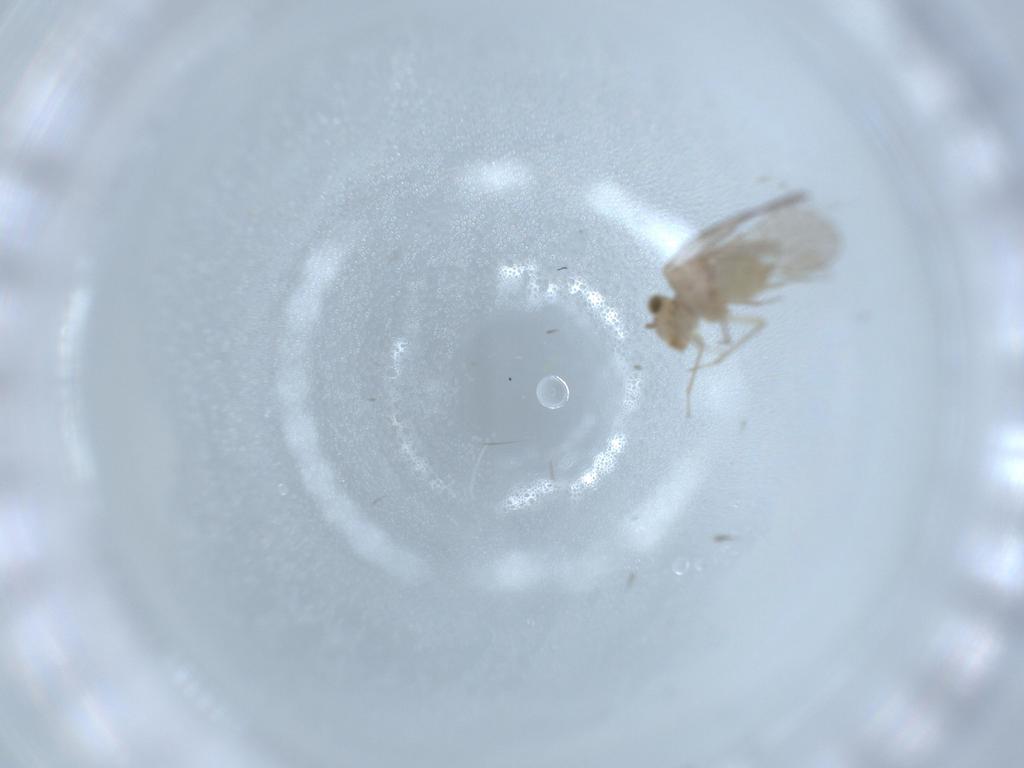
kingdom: Animalia
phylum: Arthropoda
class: Insecta
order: Psocodea
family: Lachesillidae
